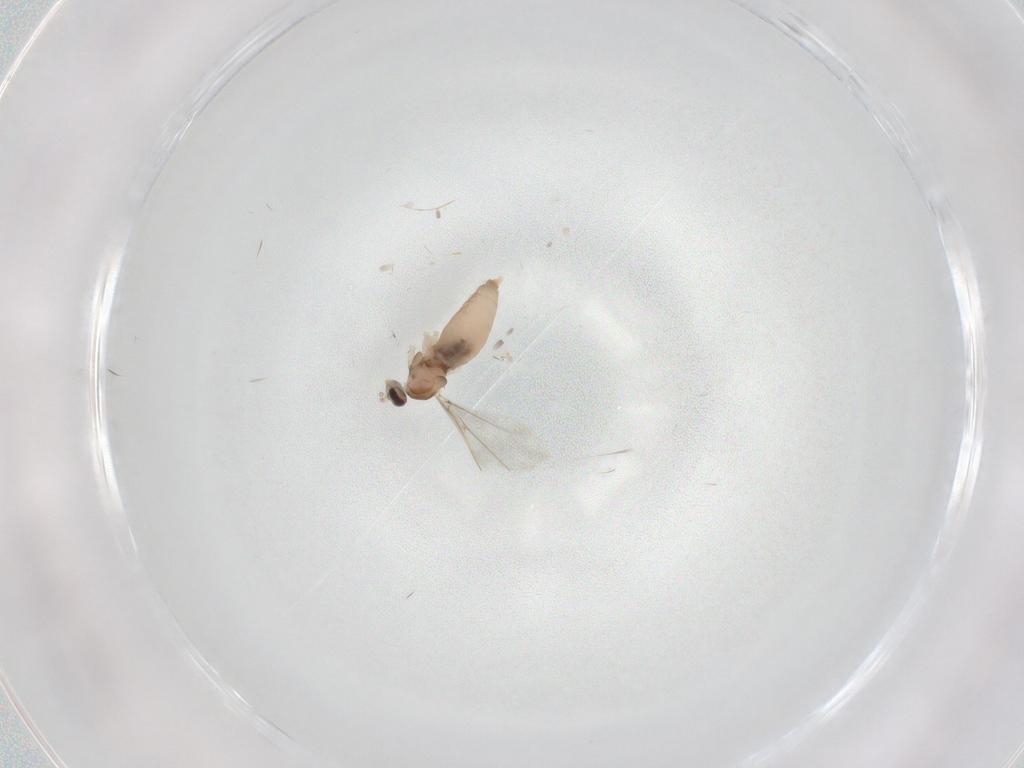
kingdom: Animalia
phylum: Arthropoda
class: Insecta
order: Diptera
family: Cecidomyiidae
